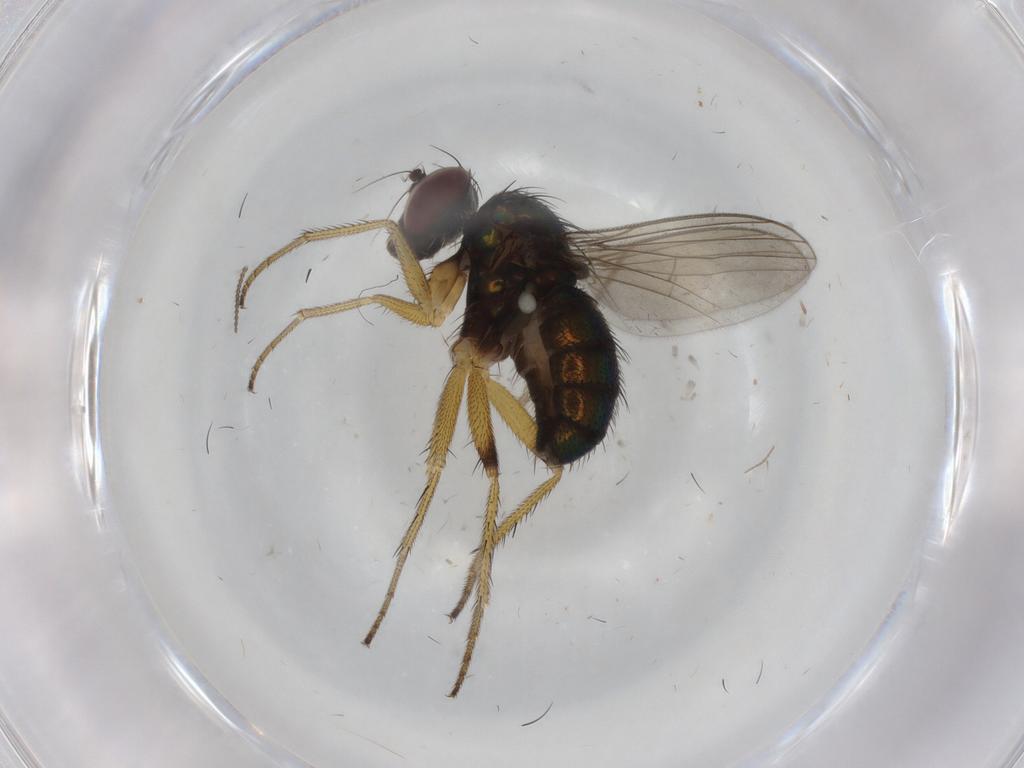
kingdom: Animalia
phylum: Arthropoda
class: Insecta
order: Diptera
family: Dolichopodidae
